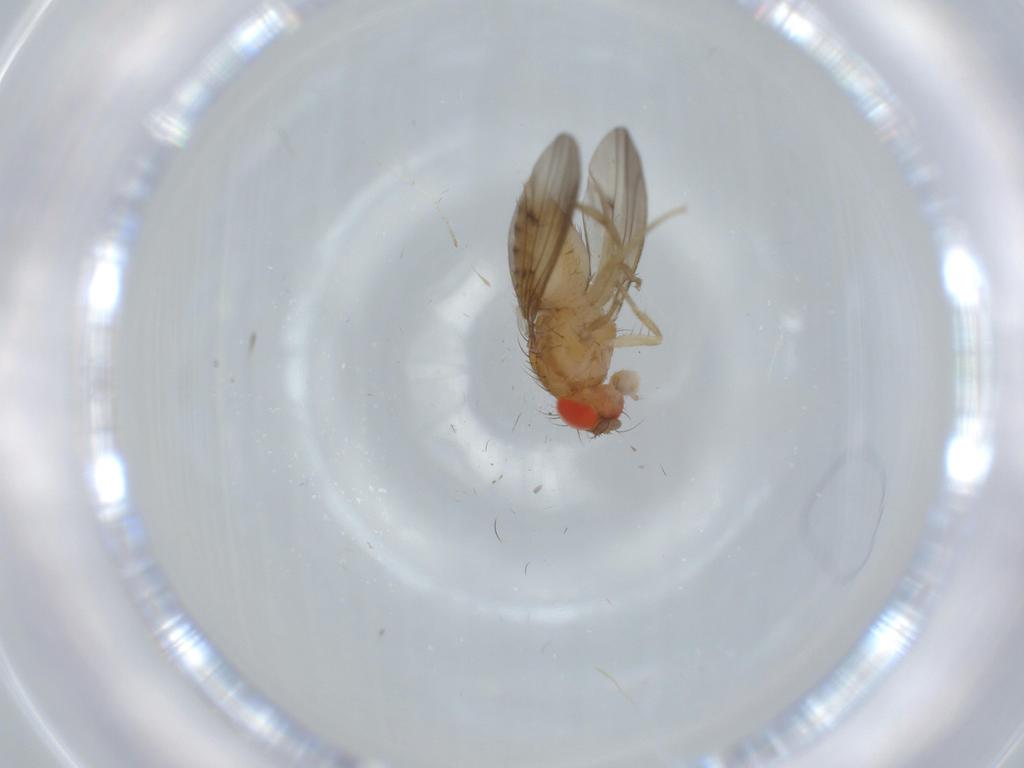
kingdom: Animalia
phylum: Arthropoda
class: Insecta
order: Diptera
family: Drosophilidae
